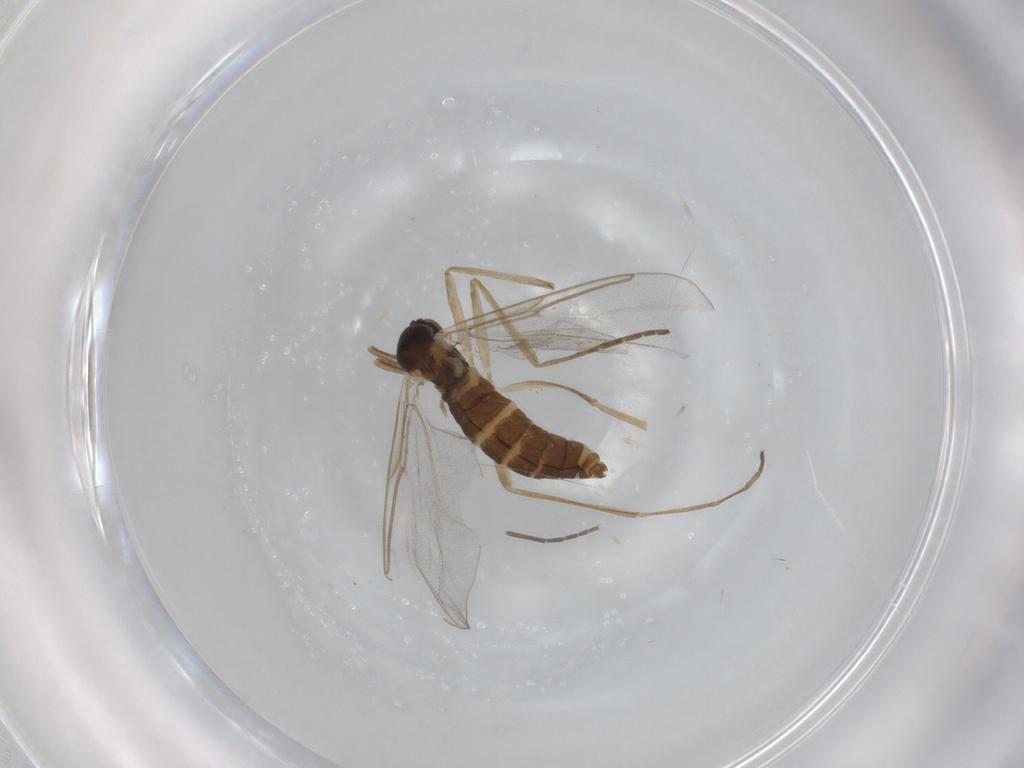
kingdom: Animalia
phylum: Arthropoda
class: Insecta
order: Diptera
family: Cecidomyiidae
